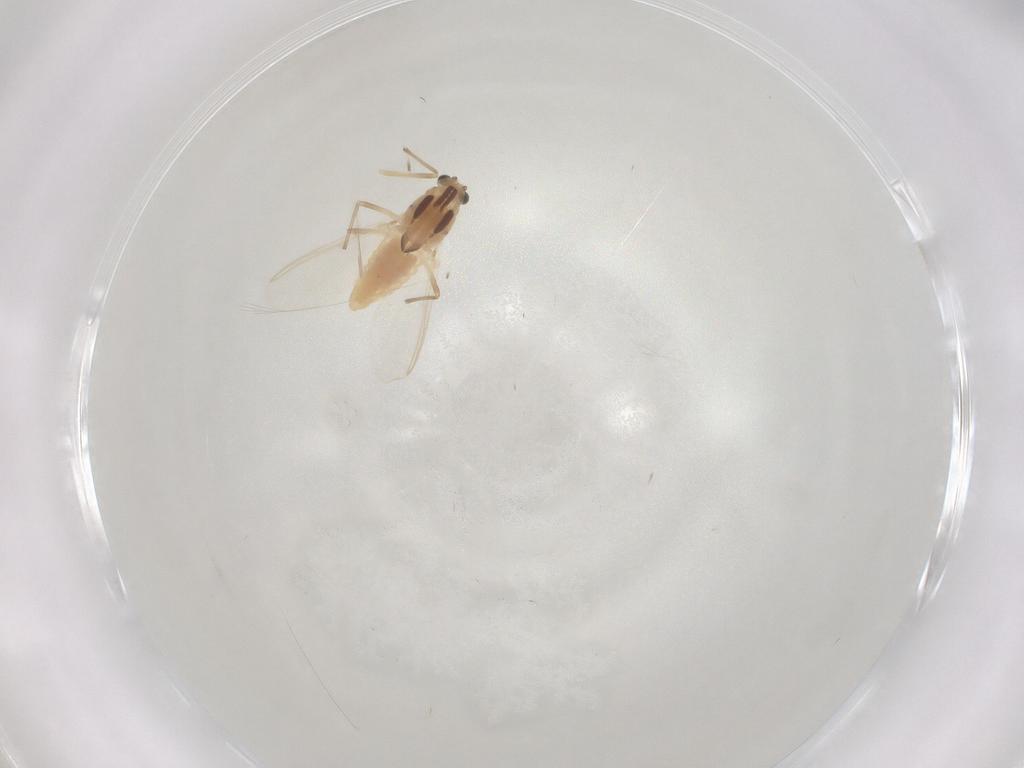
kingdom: Animalia
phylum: Arthropoda
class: Insecta
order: Diptera
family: Chironomidae
